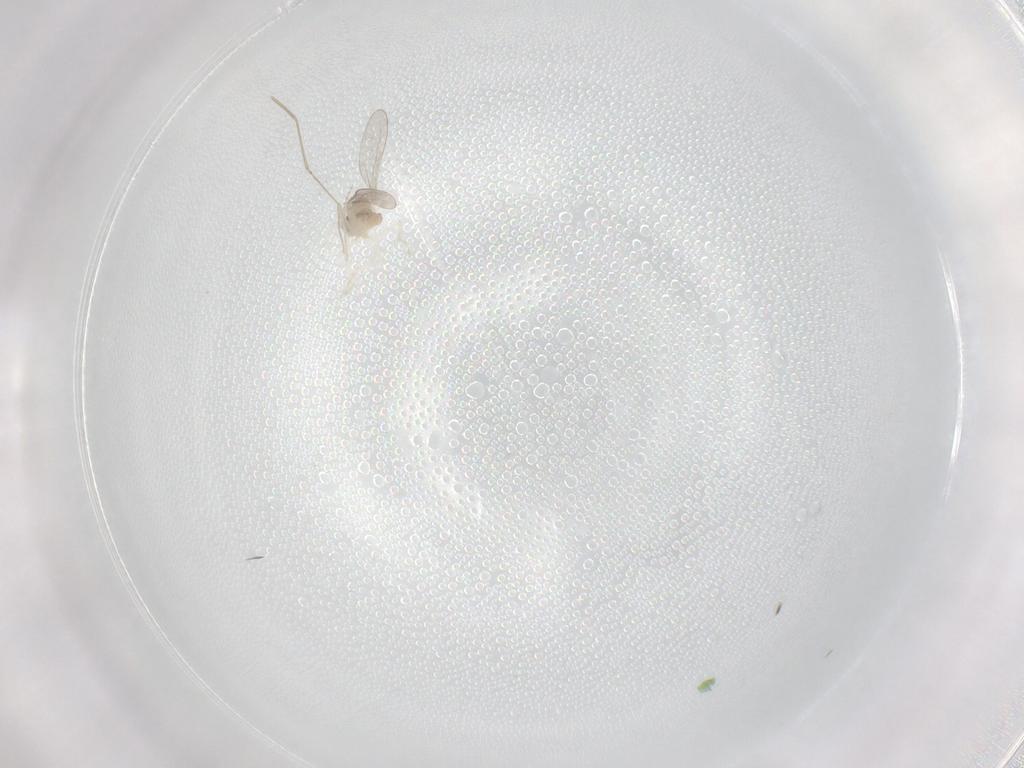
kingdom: Animalia
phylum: Arthropoda
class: Insecta
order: Diptera
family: Cecidomyiidae
